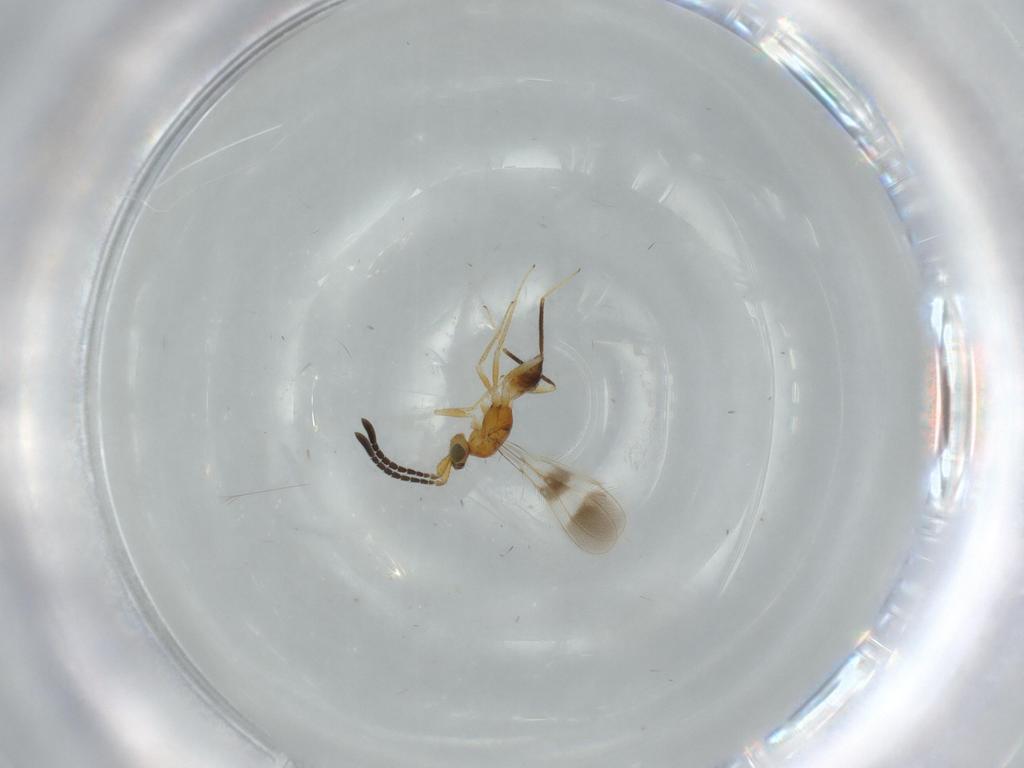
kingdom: Animalia
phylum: Arthropoda
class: Insecta
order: Hymenoptera
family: Mymaridae
